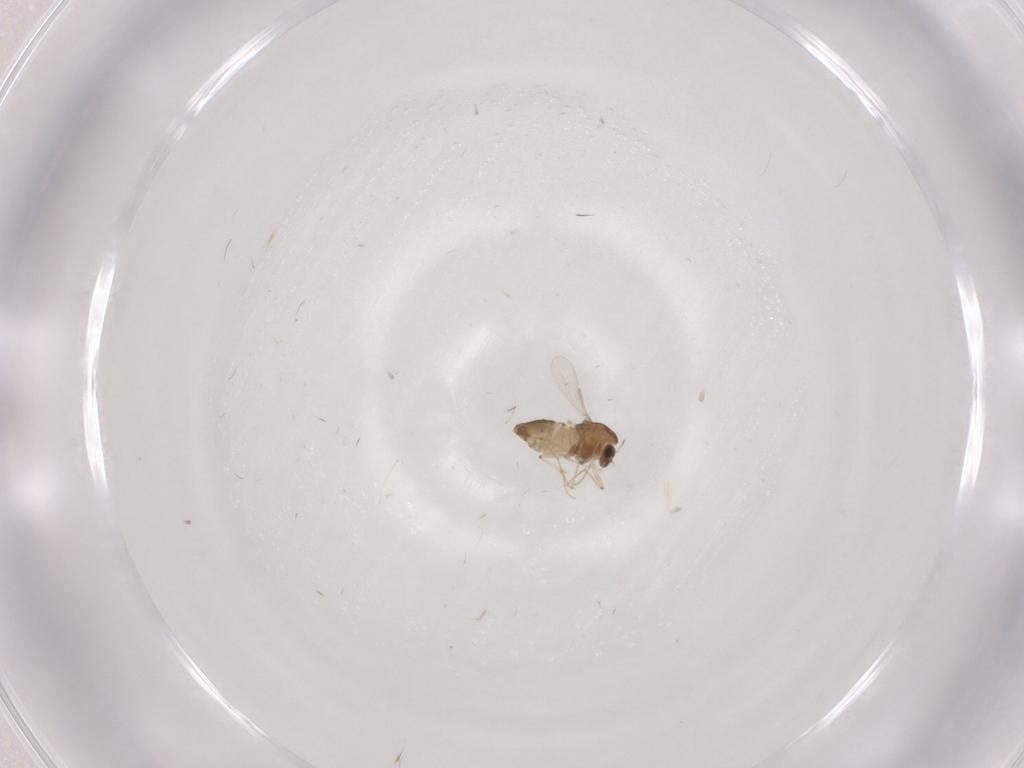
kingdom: Animalia
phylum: Arthropoda
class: Insecta
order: Diptera
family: Chironomidae
